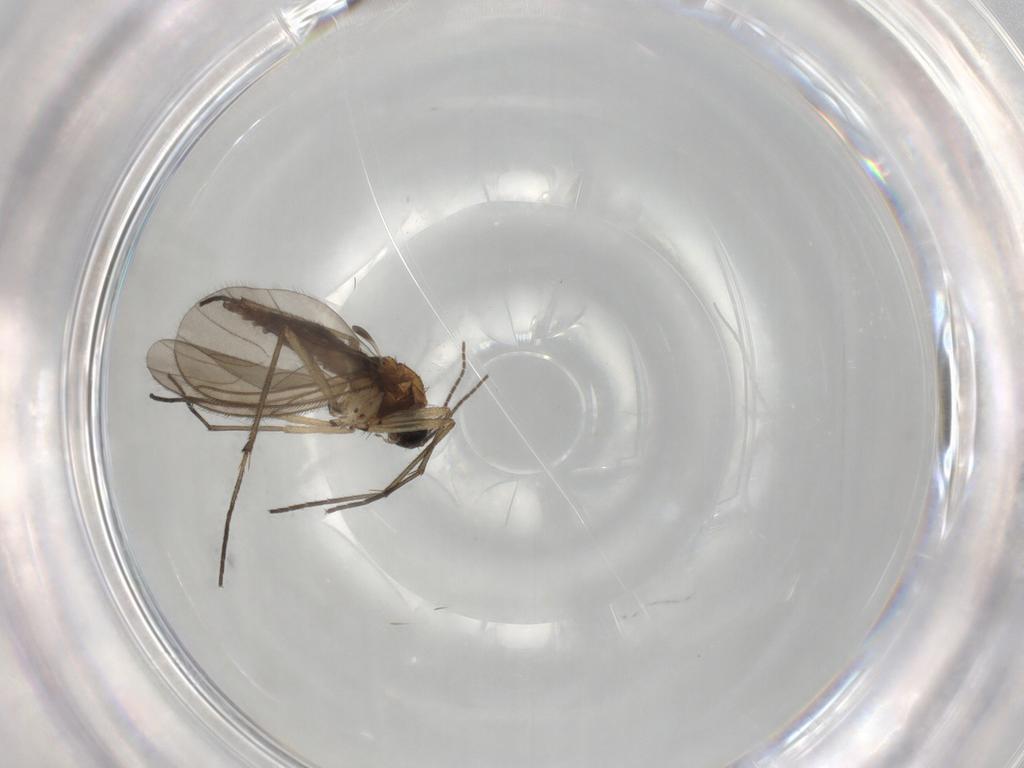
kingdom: Animalia
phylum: Arthropoda
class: Insecta
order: Diptera
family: Sciaridae
